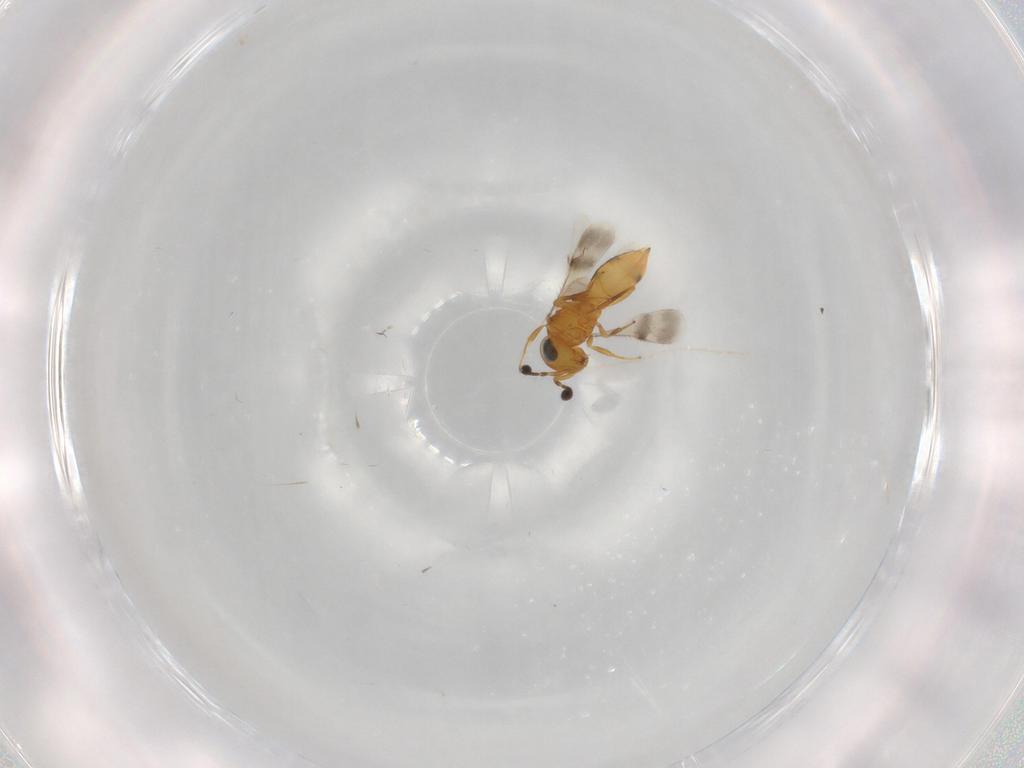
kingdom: Animalia
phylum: Arthropoda
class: Insecta
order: Hymenoptera
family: Scelionidae
